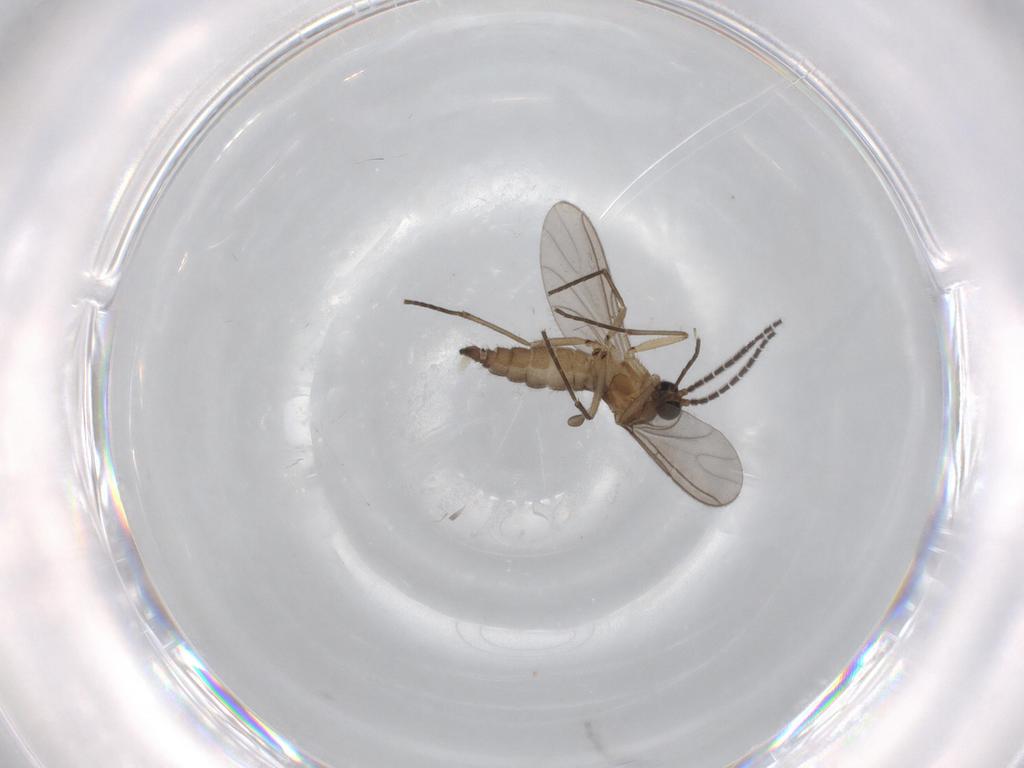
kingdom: Animalia
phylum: Arthropoda
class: Insecta
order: Diptera
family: Sciaridae
